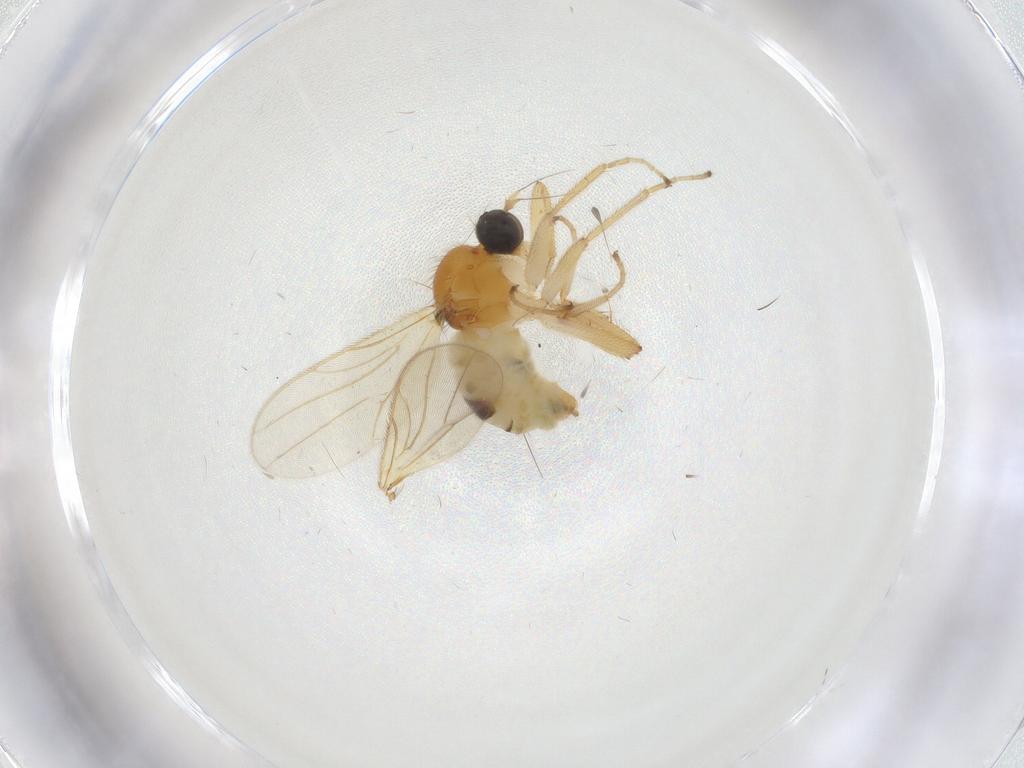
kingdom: Animalia
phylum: Arthropoda
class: Insecta
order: Diptera
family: Hybotidae
